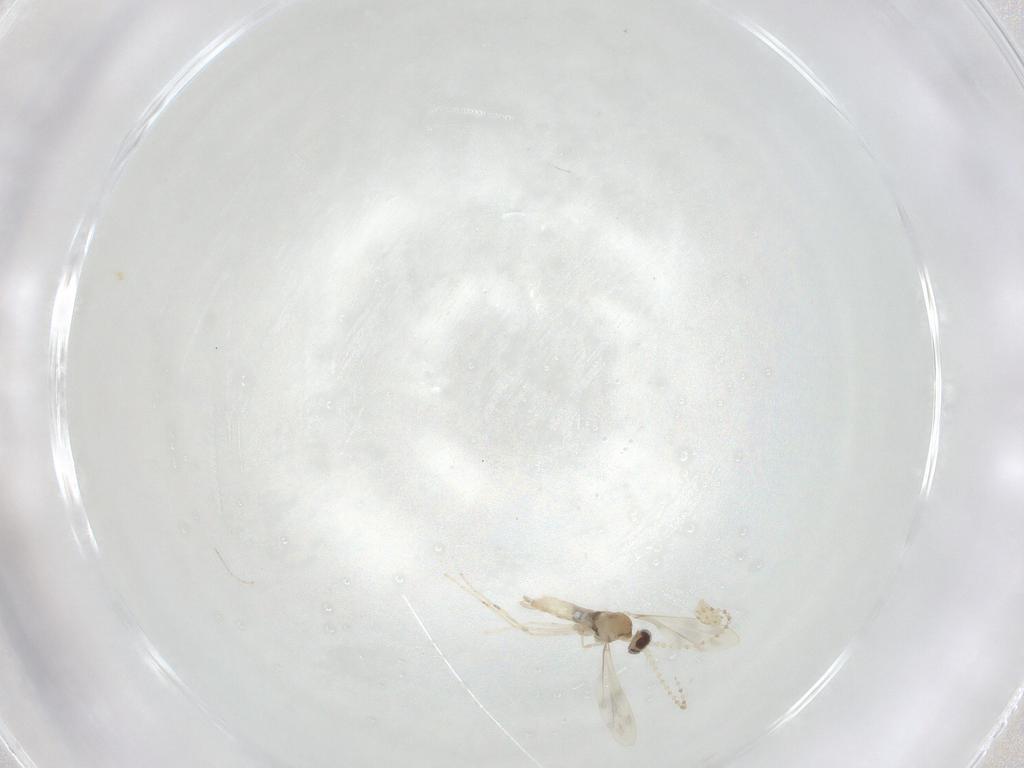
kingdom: Animalia
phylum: Arthropoda
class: Insecta
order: Diptera
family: Cecidomyiidae
